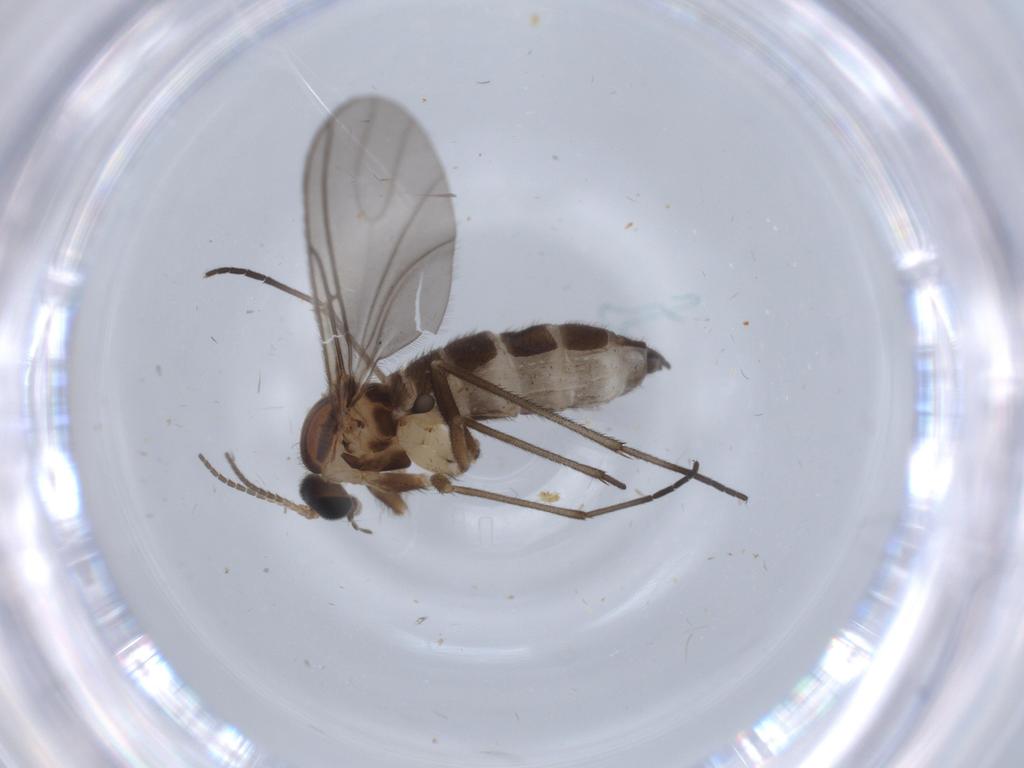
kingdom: Animalia
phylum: Arthropoda
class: Insecta
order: Diptera
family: Sciaridae
